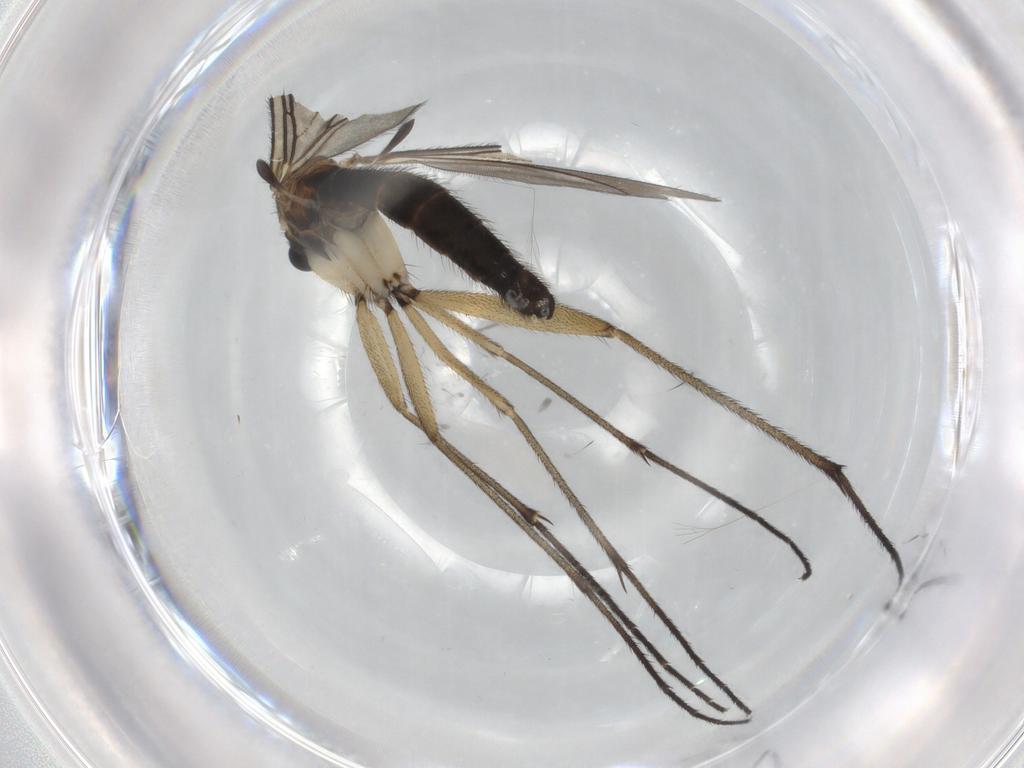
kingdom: Animalia
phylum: Arthropoda
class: Insecta
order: Diptera
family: Sciaridae
